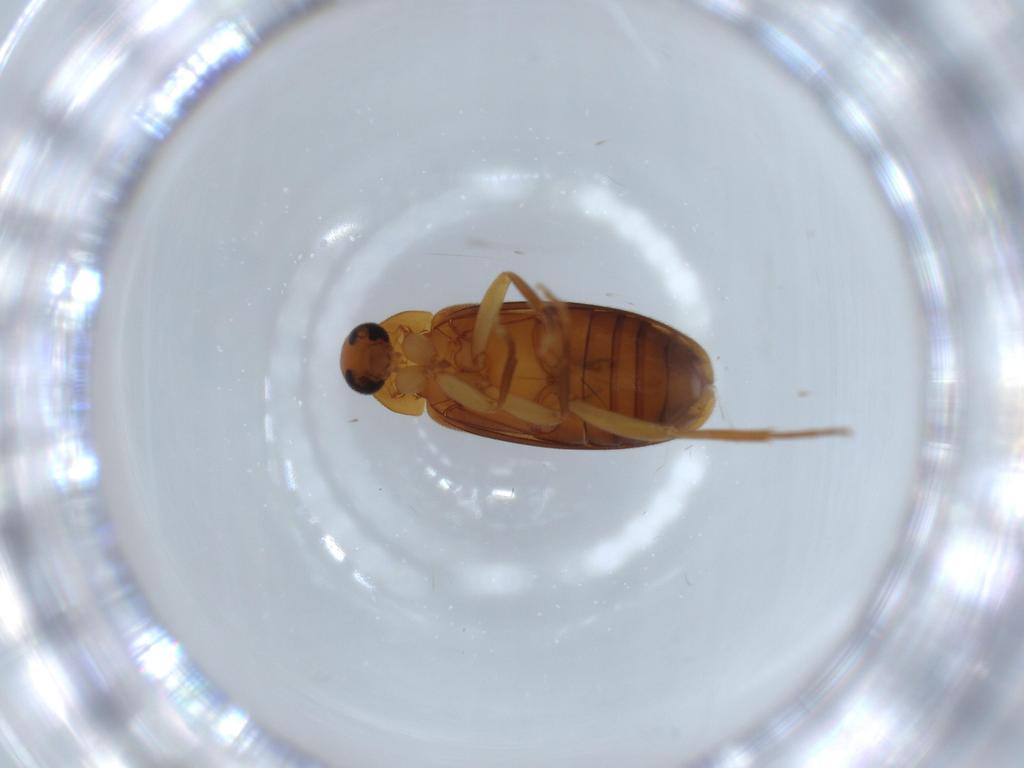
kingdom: Animalia
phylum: Arthropoda
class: Insecta
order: Coleoptera
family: Scraptiidae
